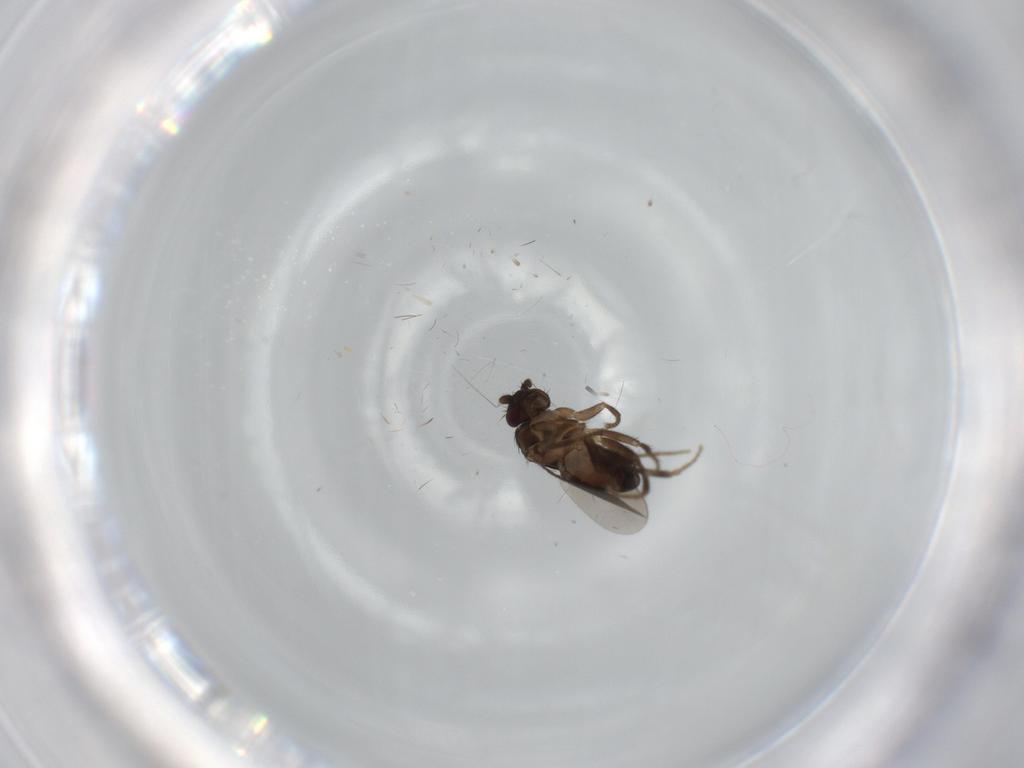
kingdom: Animalia
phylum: Arthropoda
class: Insecta
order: Diptera
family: Sphaeroceridae
